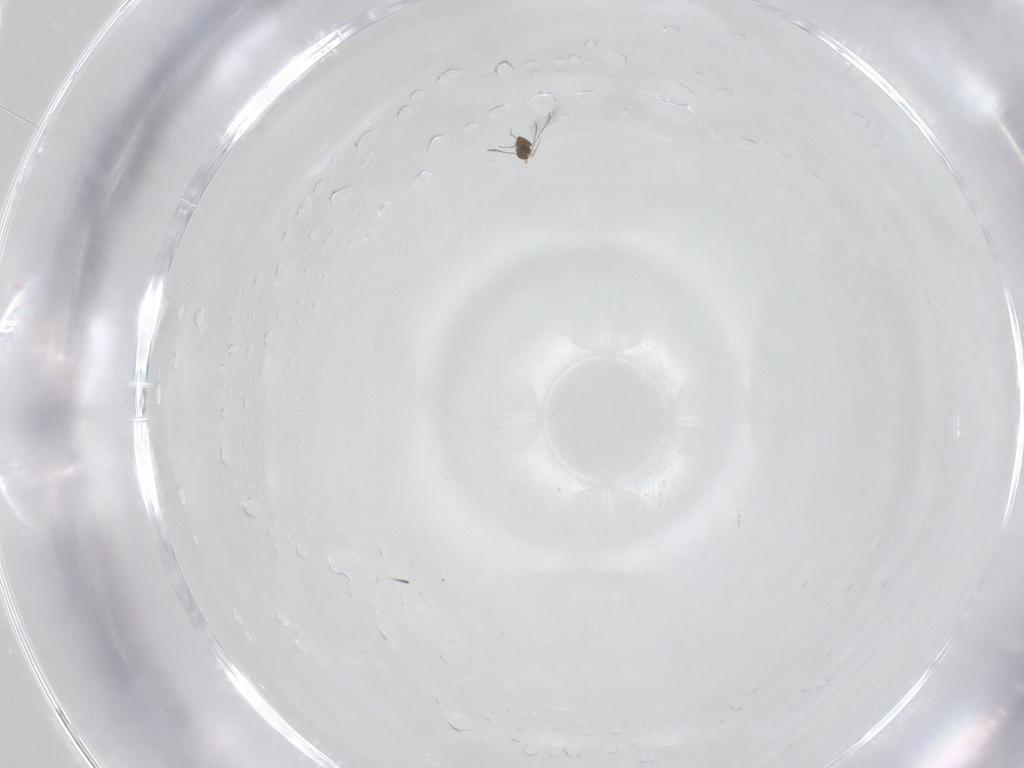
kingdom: Animalia
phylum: Arthropoda
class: Insecta
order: Hymenoptera
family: Mymaridae
